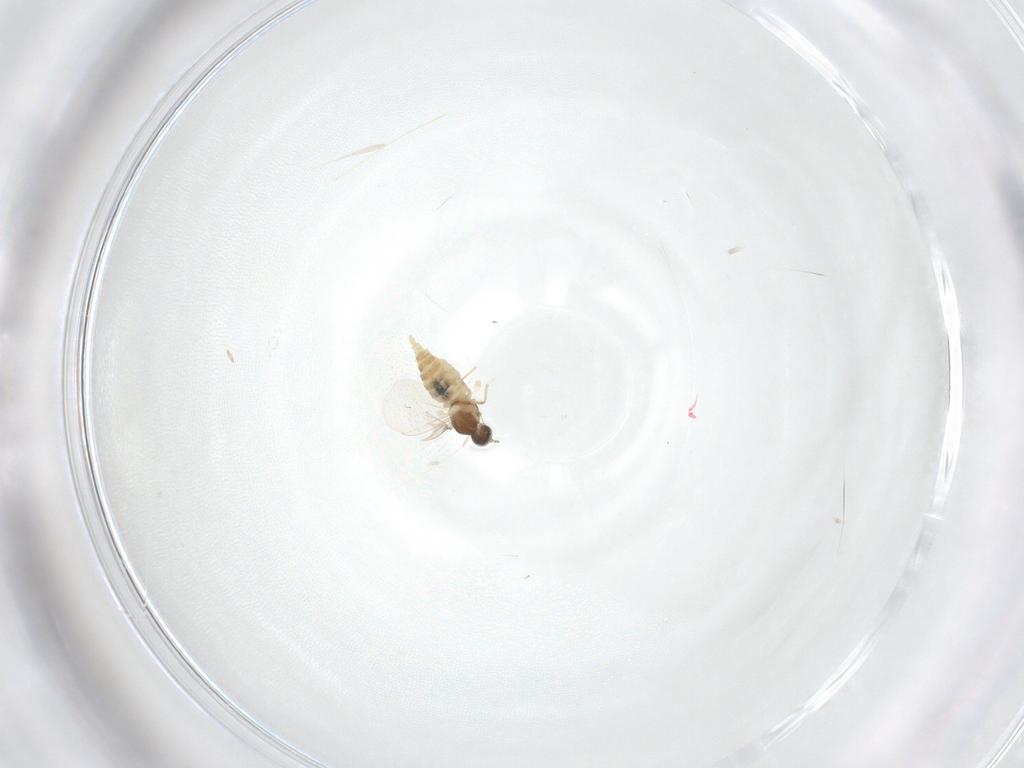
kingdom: Animalia
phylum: Arthropoda
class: Insecta
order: Diptera
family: Cecidomyiidae
